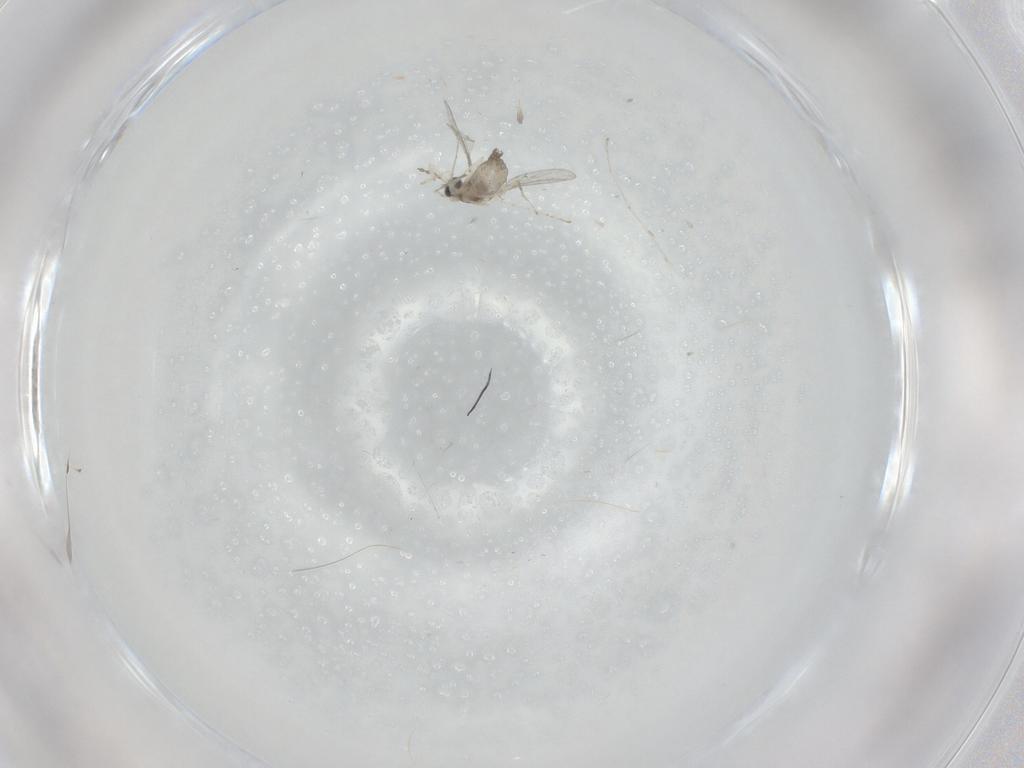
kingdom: Animalia
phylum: Arthropoda
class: Insecta
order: Diptera
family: Cecidomyiidae
